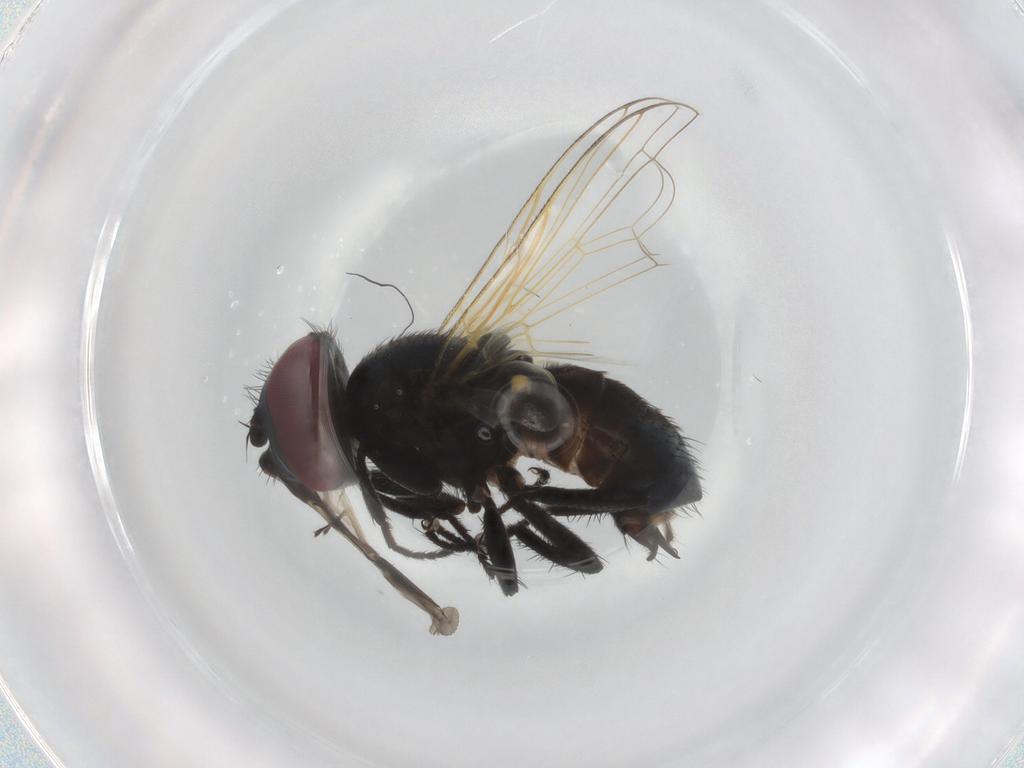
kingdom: Animalia
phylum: Arthropoda
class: Insecta
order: Diptera
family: Tachinidae
